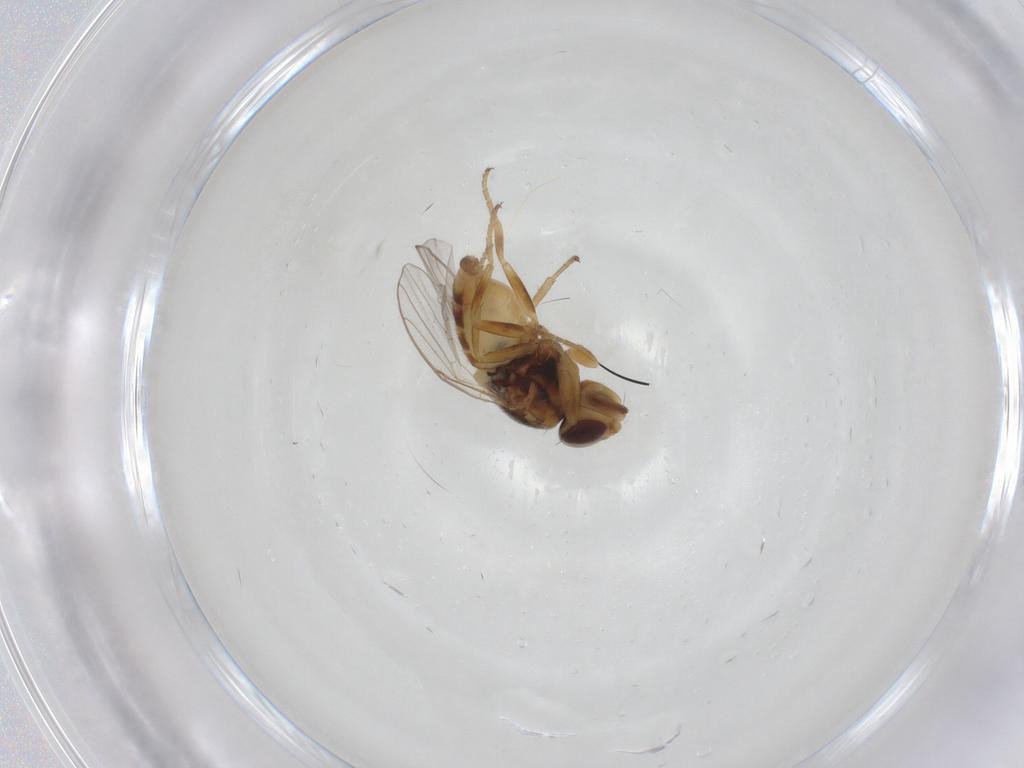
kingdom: Animalia
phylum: Arthropoda
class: Insecta
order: Diptera
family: Chloropidae
